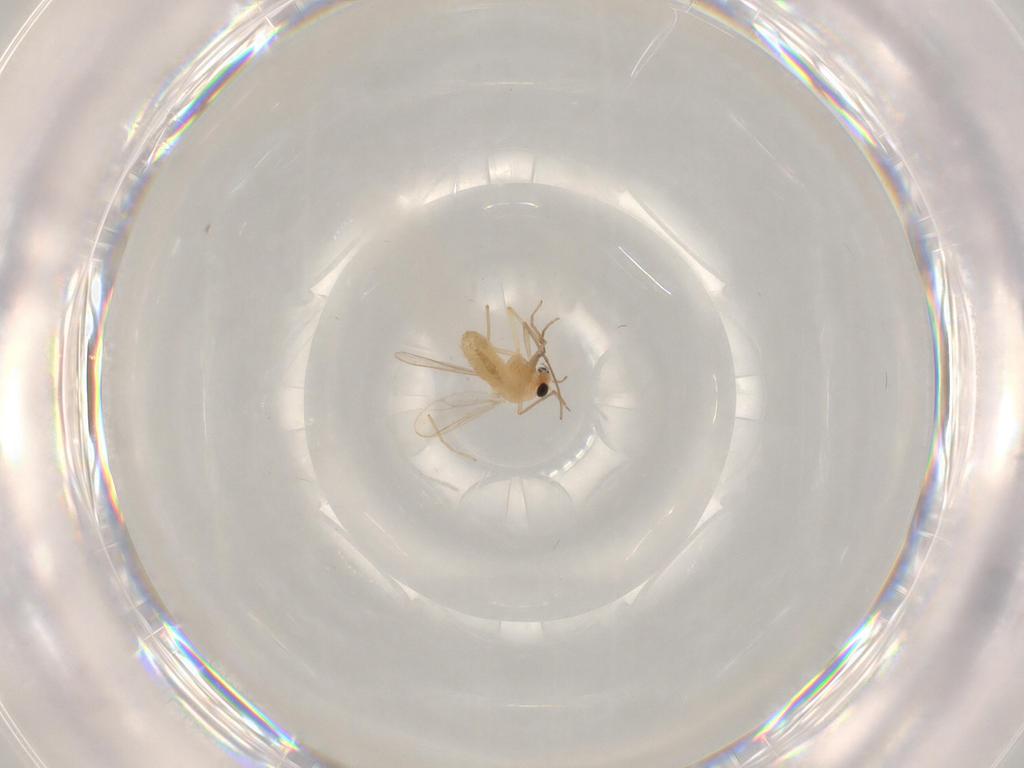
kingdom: Animalia
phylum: Arthropoda
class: Insecta
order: Diptera
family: Chironomidae
